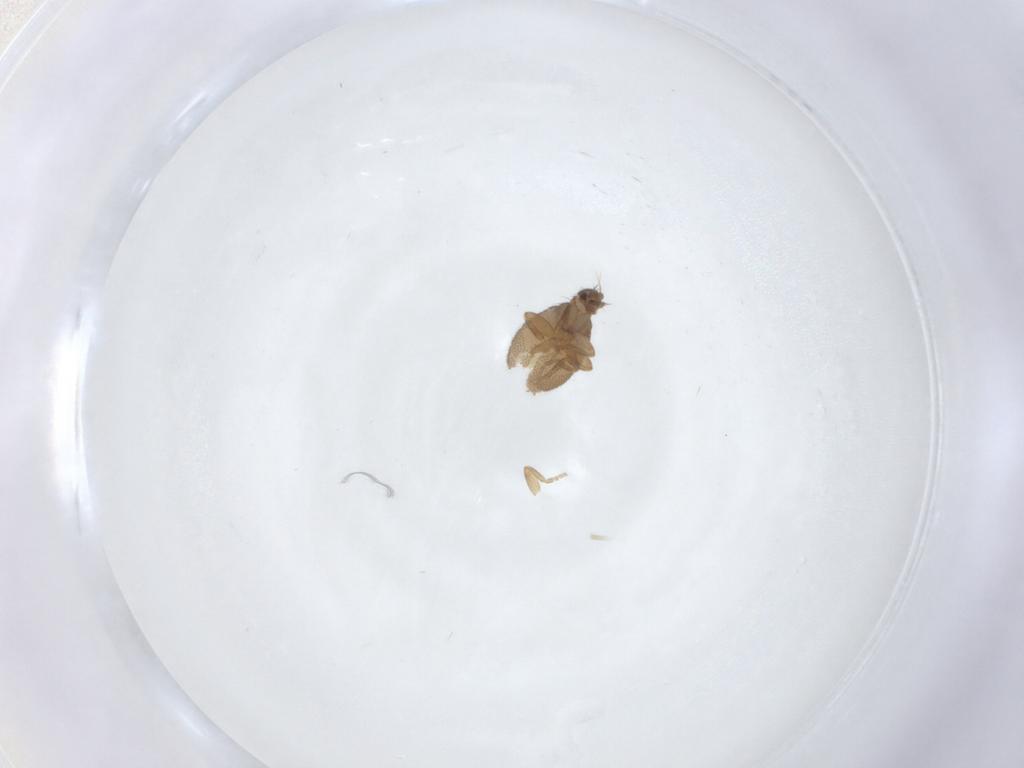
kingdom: Animalia
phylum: Arthropoda
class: Insecta
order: Diptera
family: Phoridae
